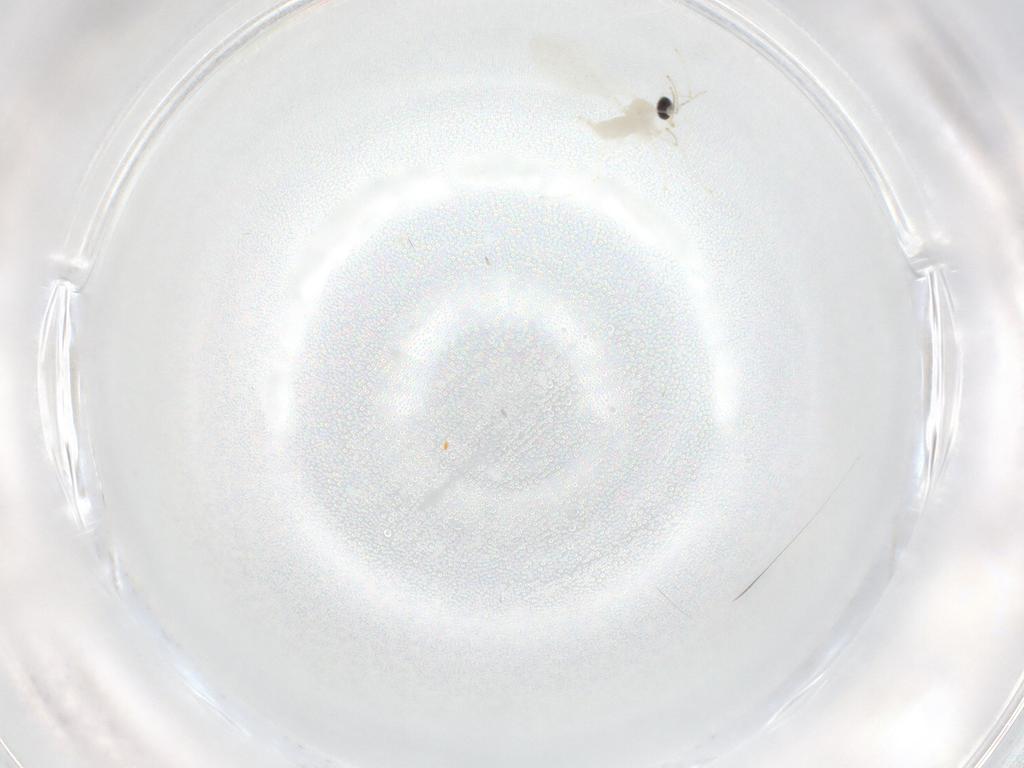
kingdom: Animalia
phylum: Arthropoda
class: Insecta
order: Diptera
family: Cecidomyiidae
